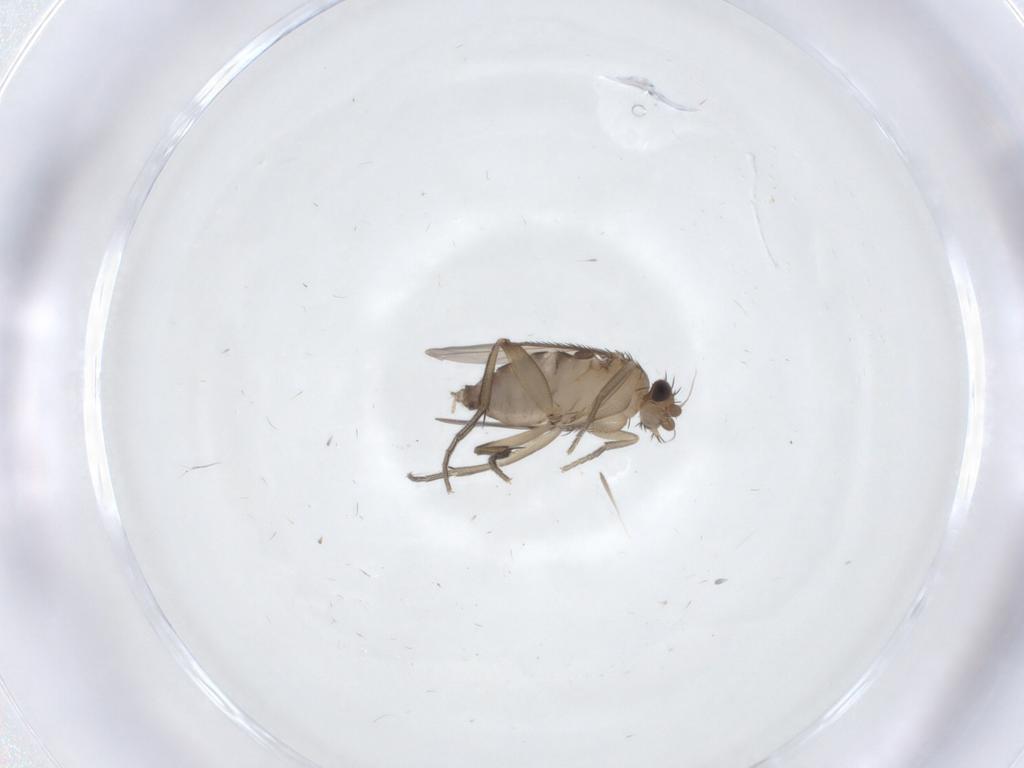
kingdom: Animalia
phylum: Arthropoda
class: Insecta
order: Diptera
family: Phoridae
